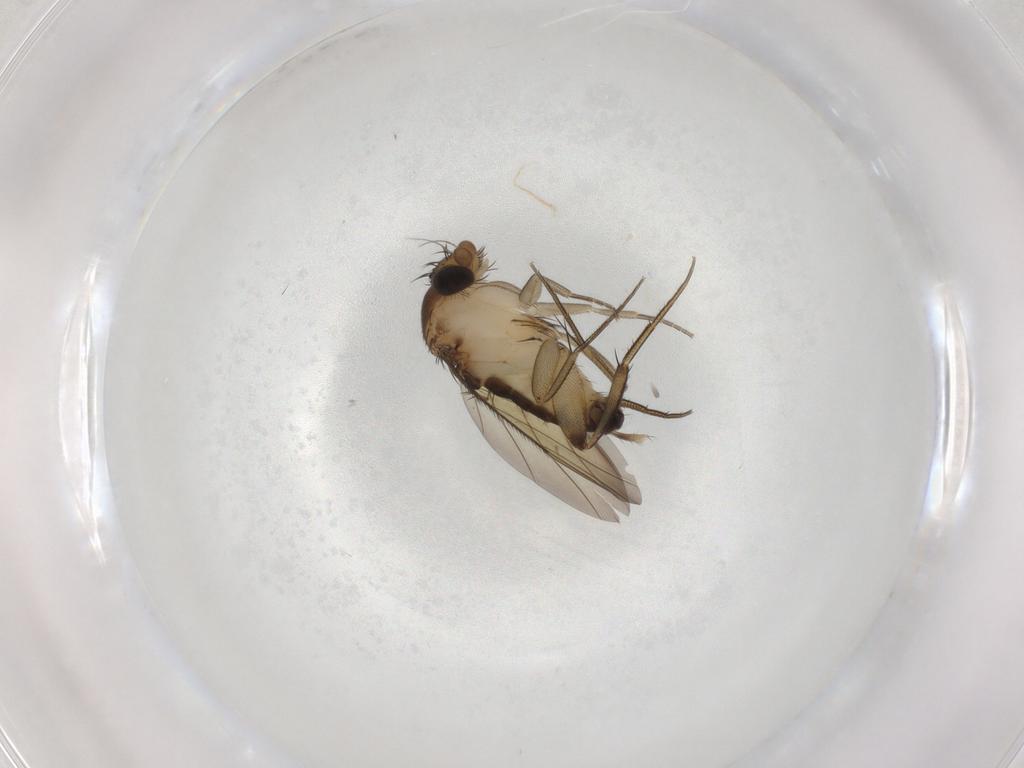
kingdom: Animalia
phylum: Arthropoda
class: Insecta
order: Diptera
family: Phoridae
